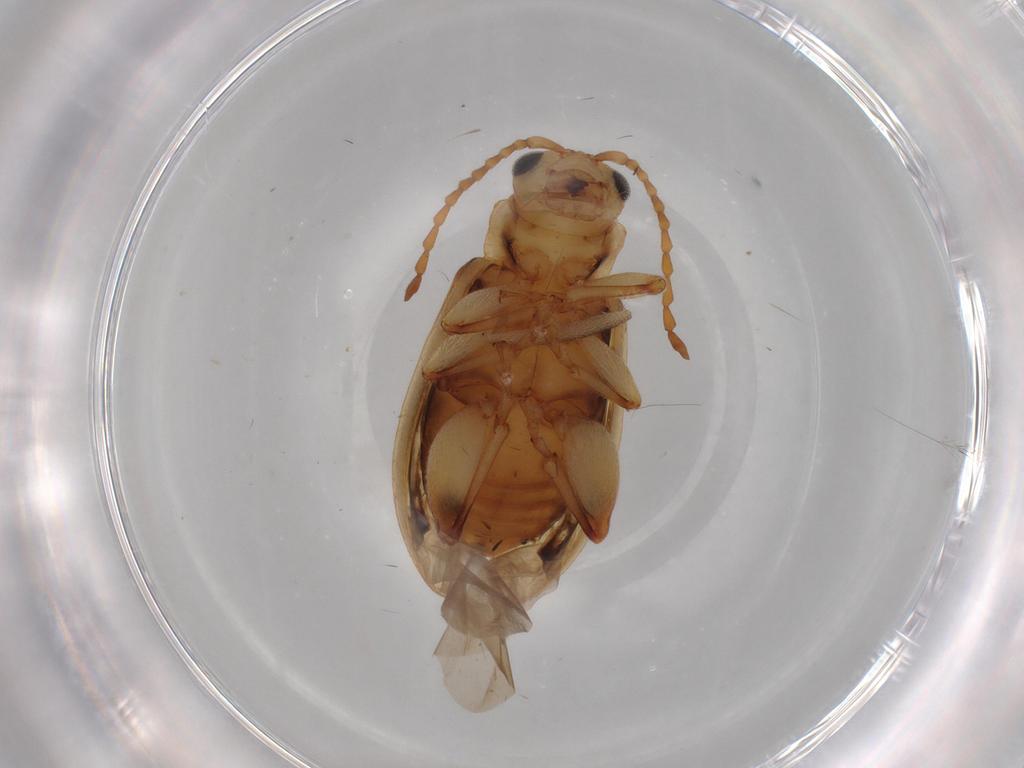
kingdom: Animalia
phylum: Arthropoda
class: Insecta
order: Coleoptera
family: Chrysomelidae
